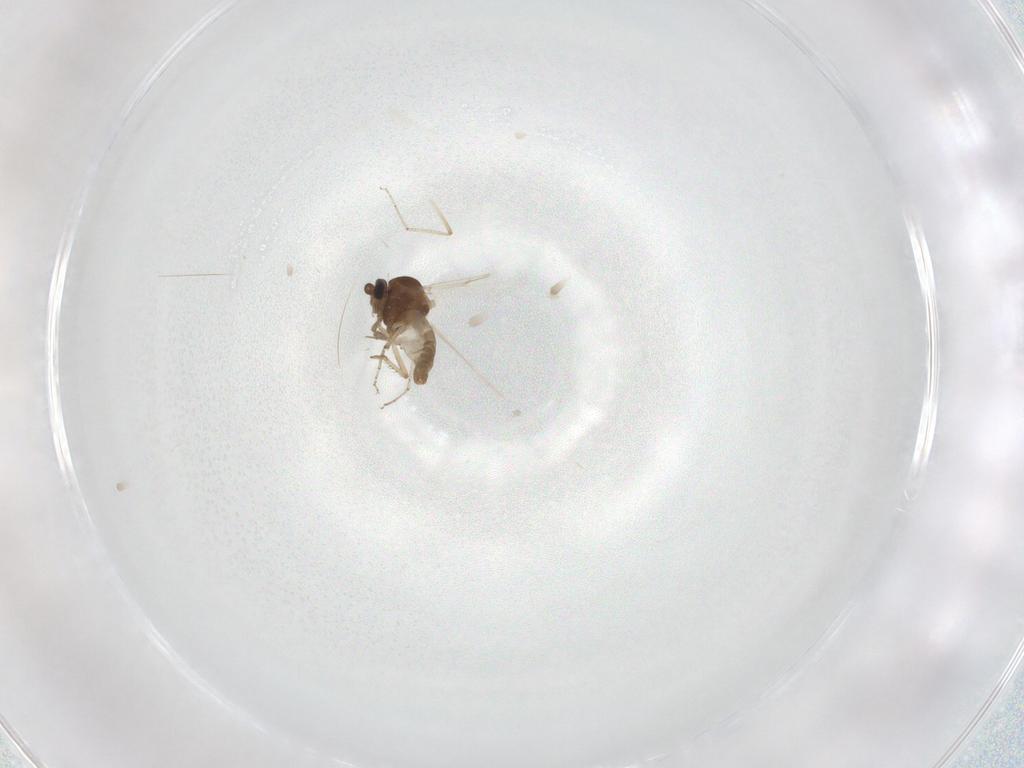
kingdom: Animalia
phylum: Arthropoda
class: Insecta
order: Diptera
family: Ceratopogonidae
